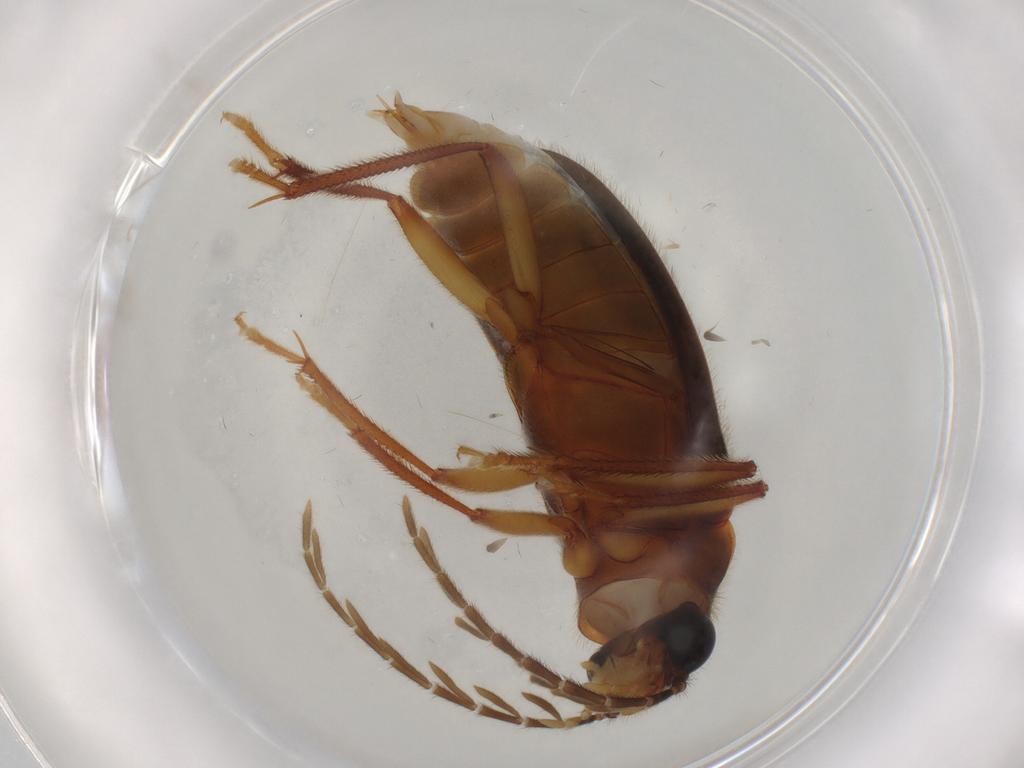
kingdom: Animalia
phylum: Arthropoda
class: Insecta
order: Coleoptera
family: Ptilodactylidae
